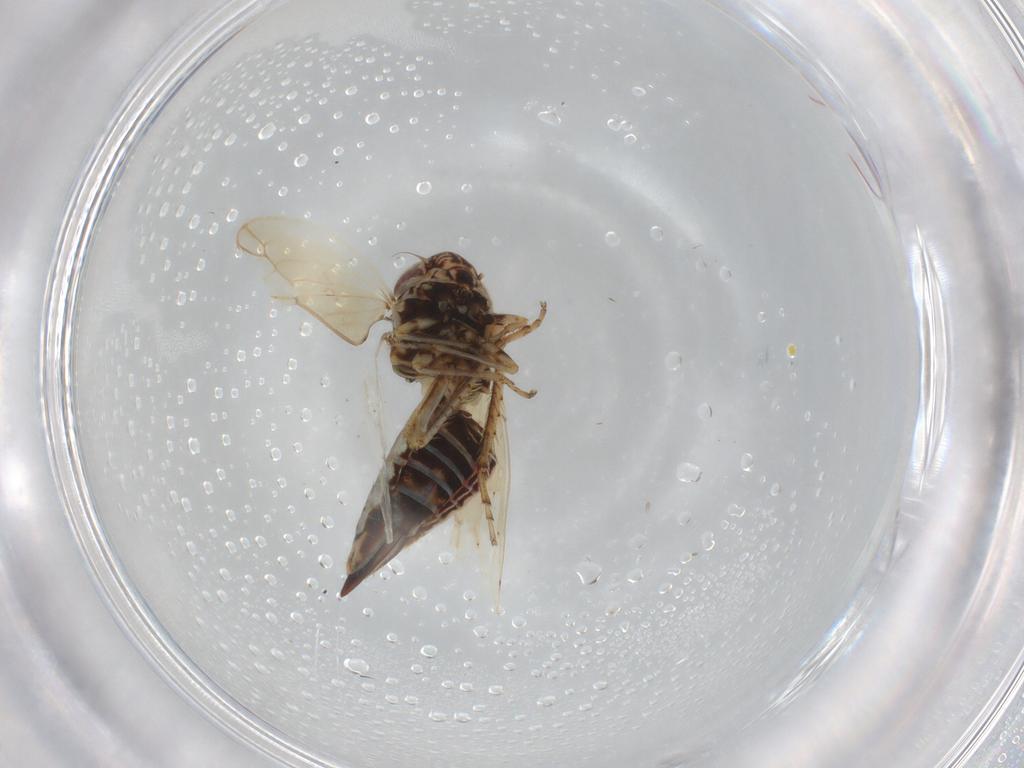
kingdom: Animalia
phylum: Arthropoda
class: Insecta
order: Hemiptera
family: Cicadellidae
